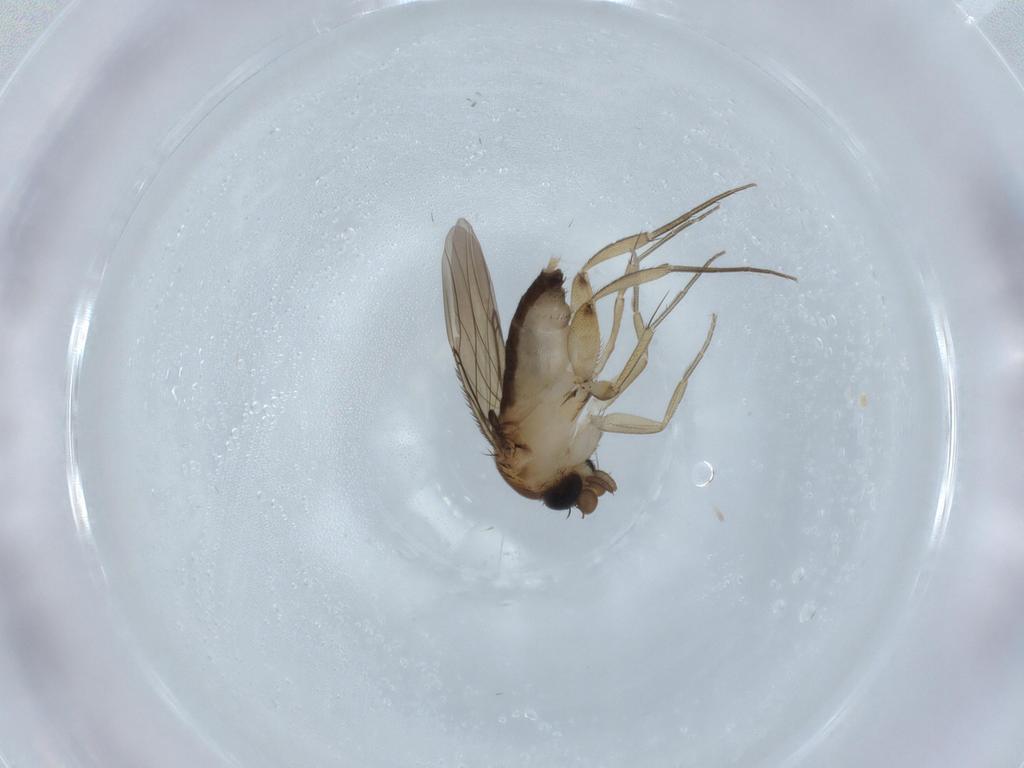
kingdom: Animalia
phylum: Arthropoda
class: Insecta
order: Diptera
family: Phoridae
